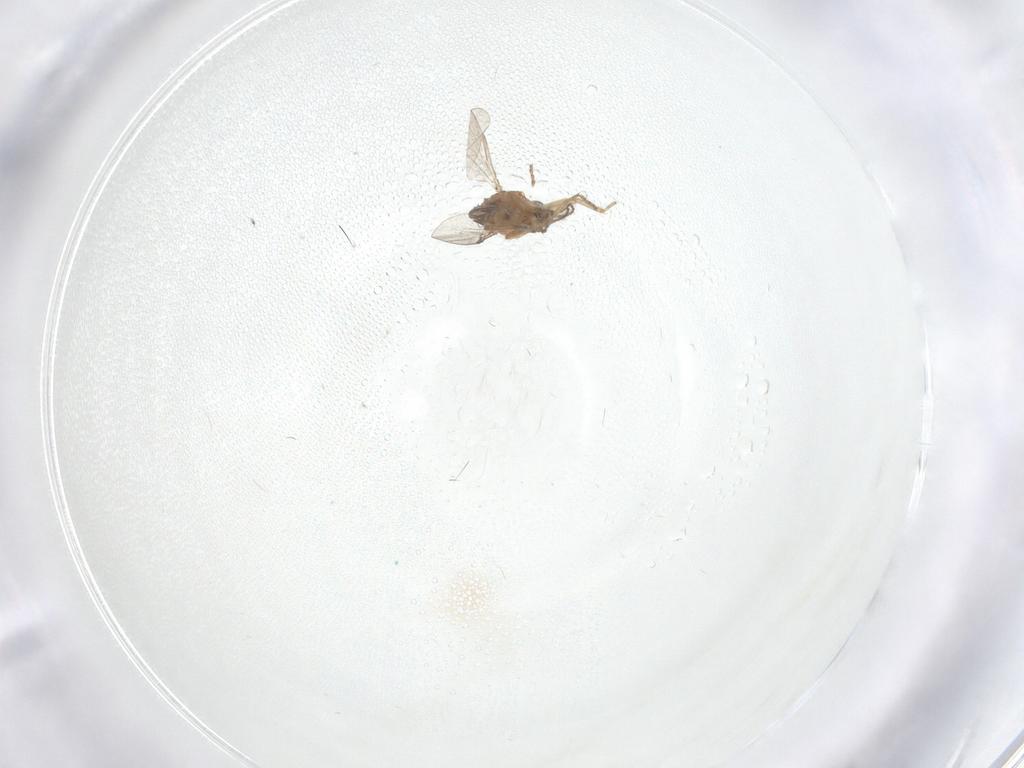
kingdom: Animalia
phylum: Arthropoda
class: Insecta
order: Diptera
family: Ceratopogonidae
